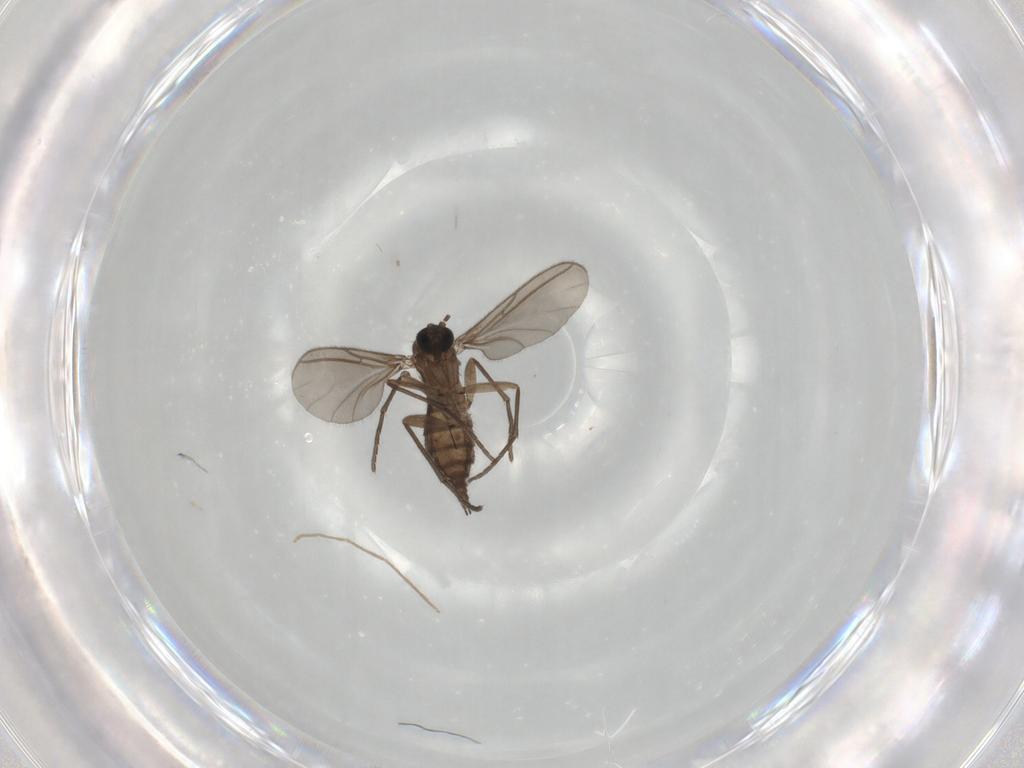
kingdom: Animalia
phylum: Arthropoda
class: Insecta
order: Diptera
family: Sciaridae
